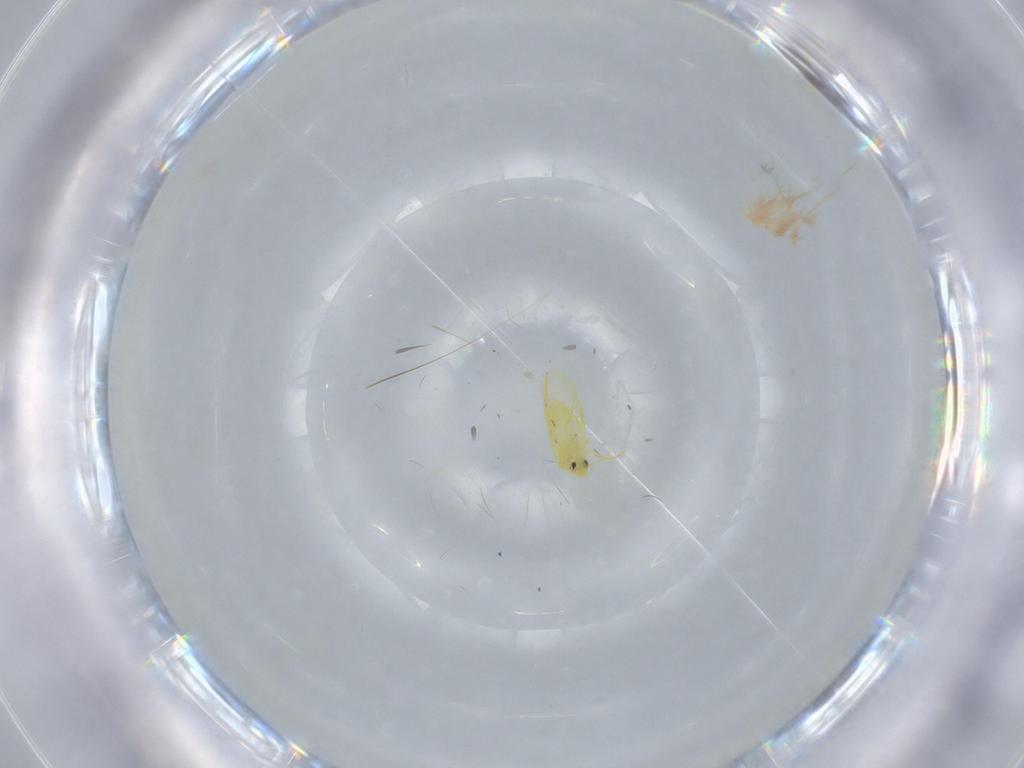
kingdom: Animalia
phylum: Arthropoda
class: Insecta
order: Hemiptera
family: Aleyrodidae
